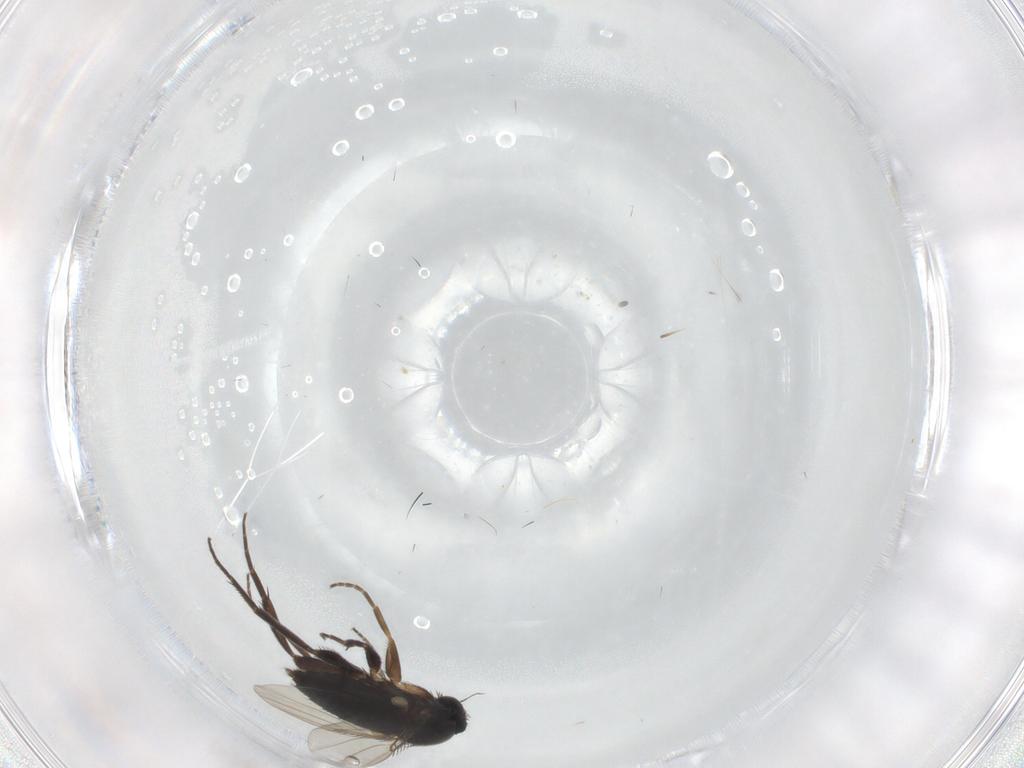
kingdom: Animalia
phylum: Arthropoda
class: Insecta
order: Diptera
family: Phoridae
